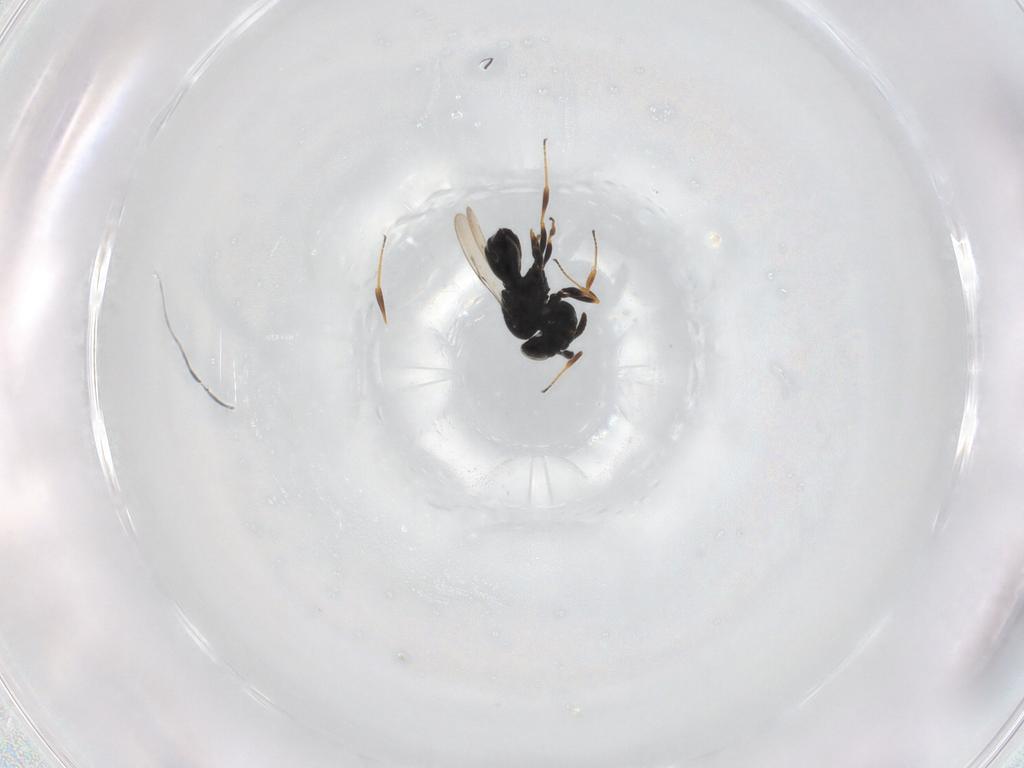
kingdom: Animalia
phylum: Arthropoda
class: Insecta
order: Hymenoptera
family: Scelionidae
